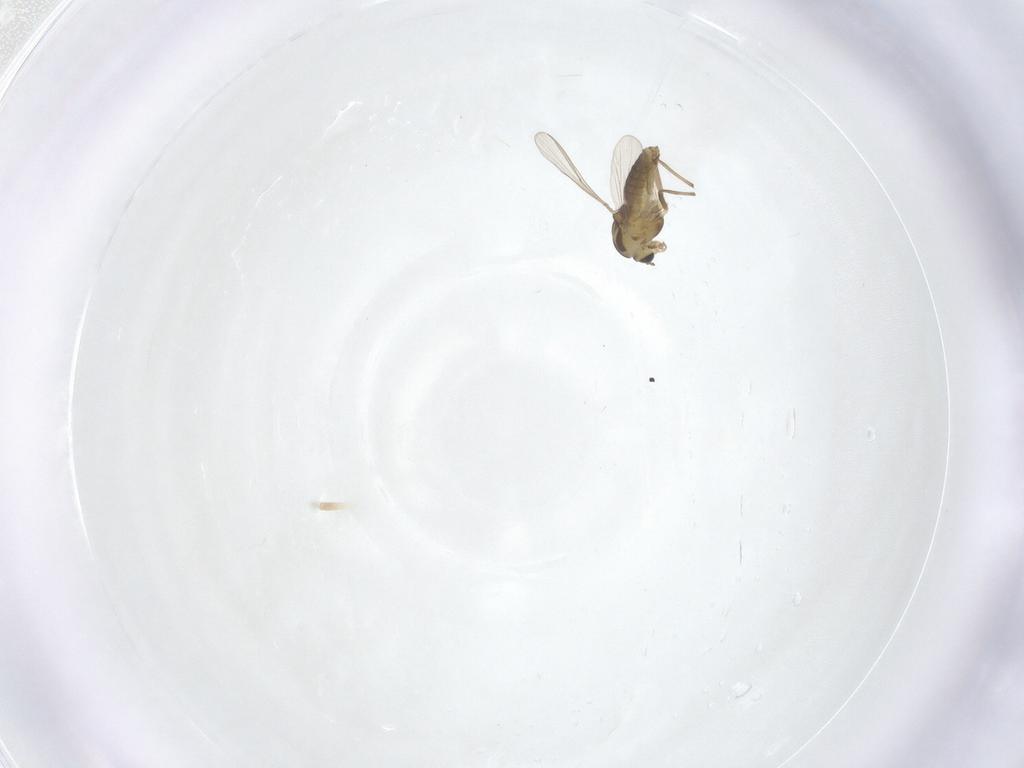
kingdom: Animalia
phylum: Arthropoda
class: Insecta
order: Diptera
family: Chironomidae
